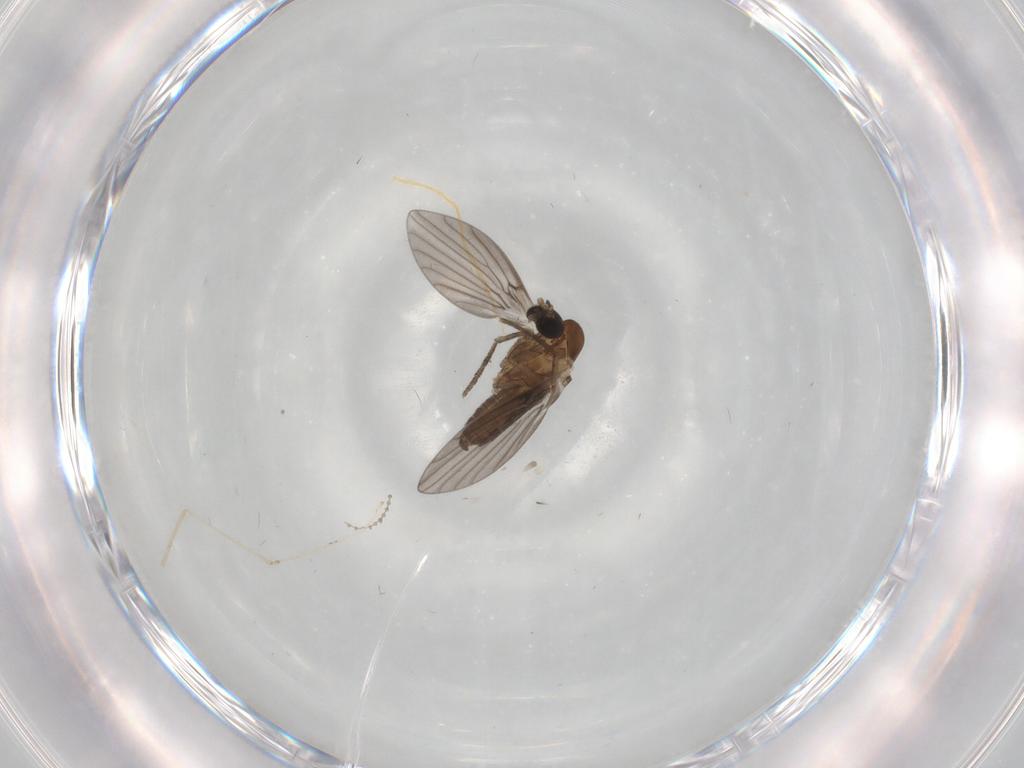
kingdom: Animalia
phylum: Arthropoda
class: Insecta
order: Diptera
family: Psychodidae
